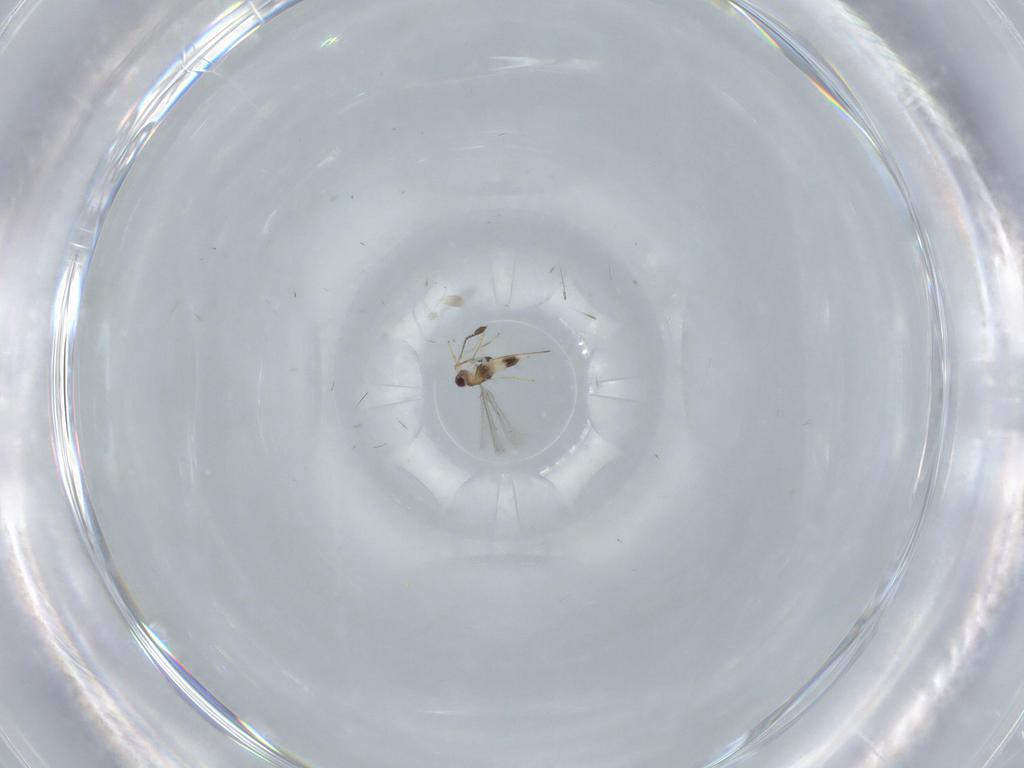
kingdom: Animalia
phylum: Arthropoda
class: Insecta
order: Hymenoptera
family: Mymaridae
